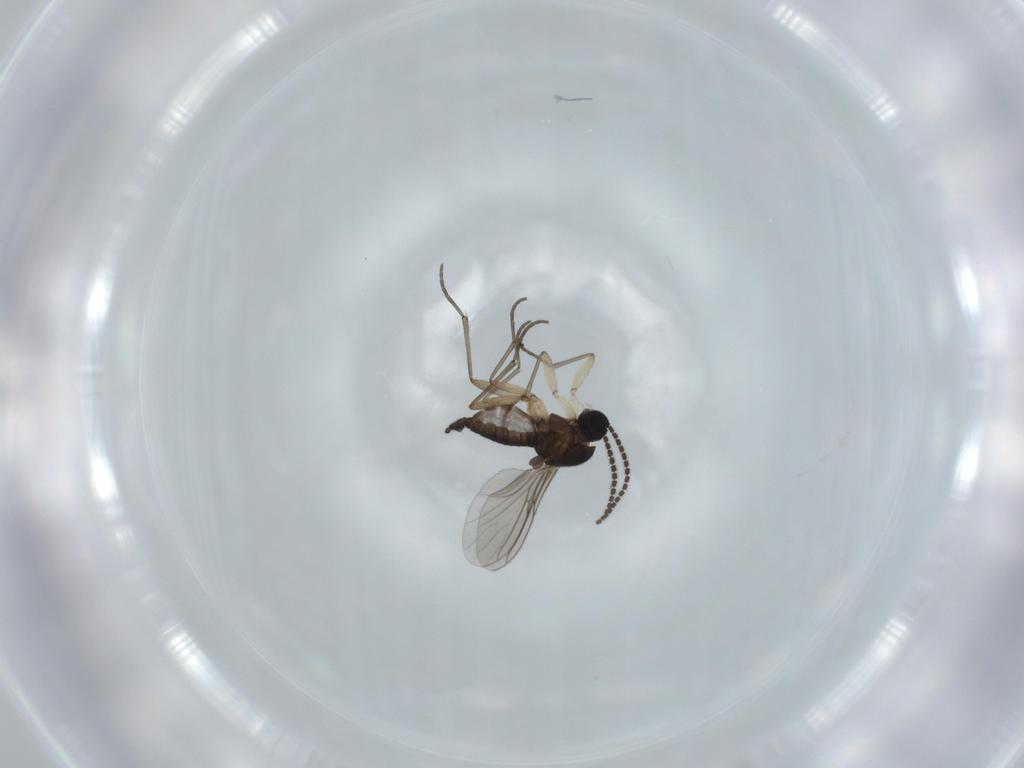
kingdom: Animalia
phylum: Arthropoda
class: Insecta
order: Diptera
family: Sciaridae
